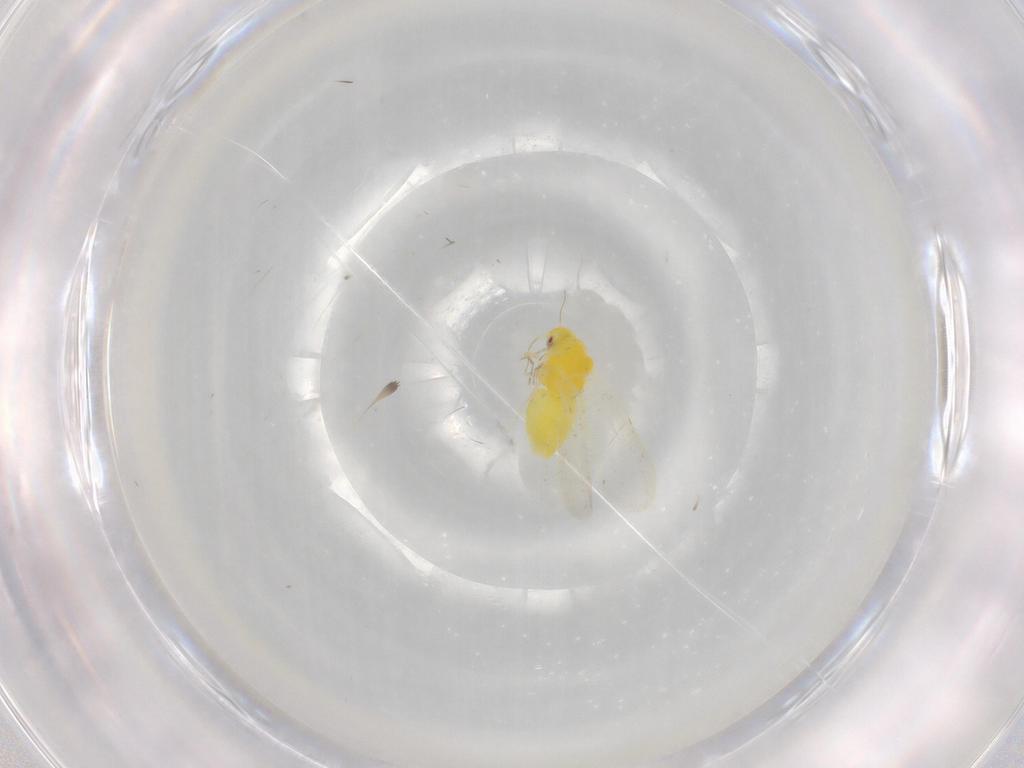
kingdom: Animalia
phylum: Arthropoda
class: Insecta
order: Hemiptera
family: Aleyrodidae
